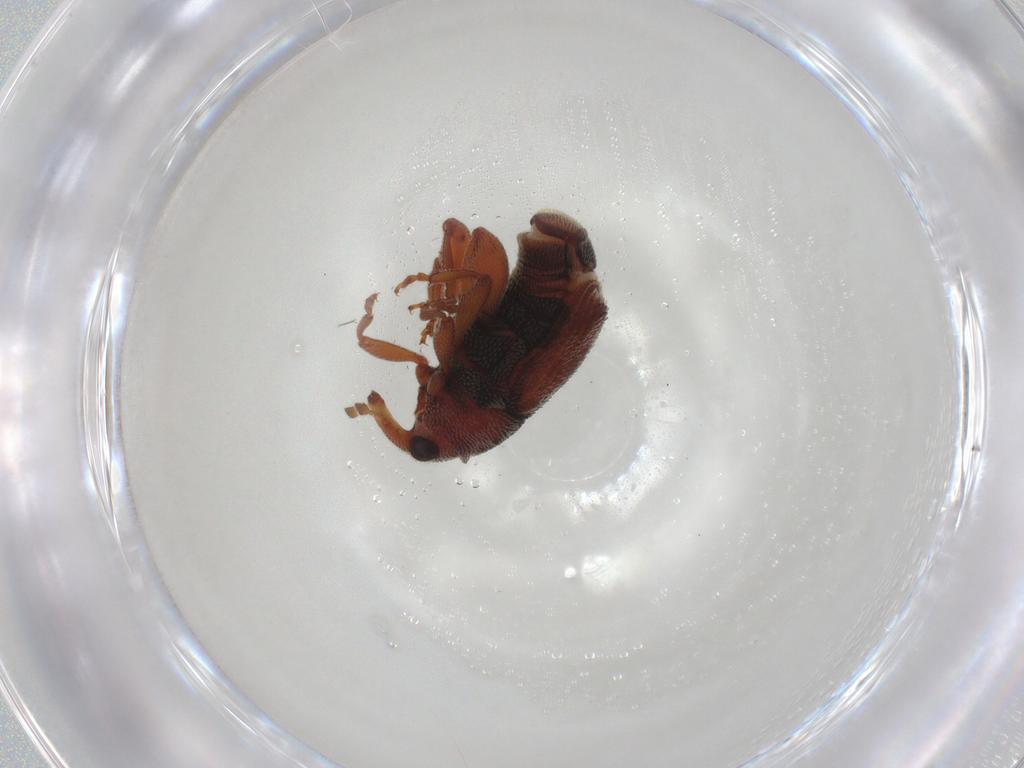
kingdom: Animalia
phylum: Arthropoda
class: Insecta
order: Coleoptera
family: Curculionidae
